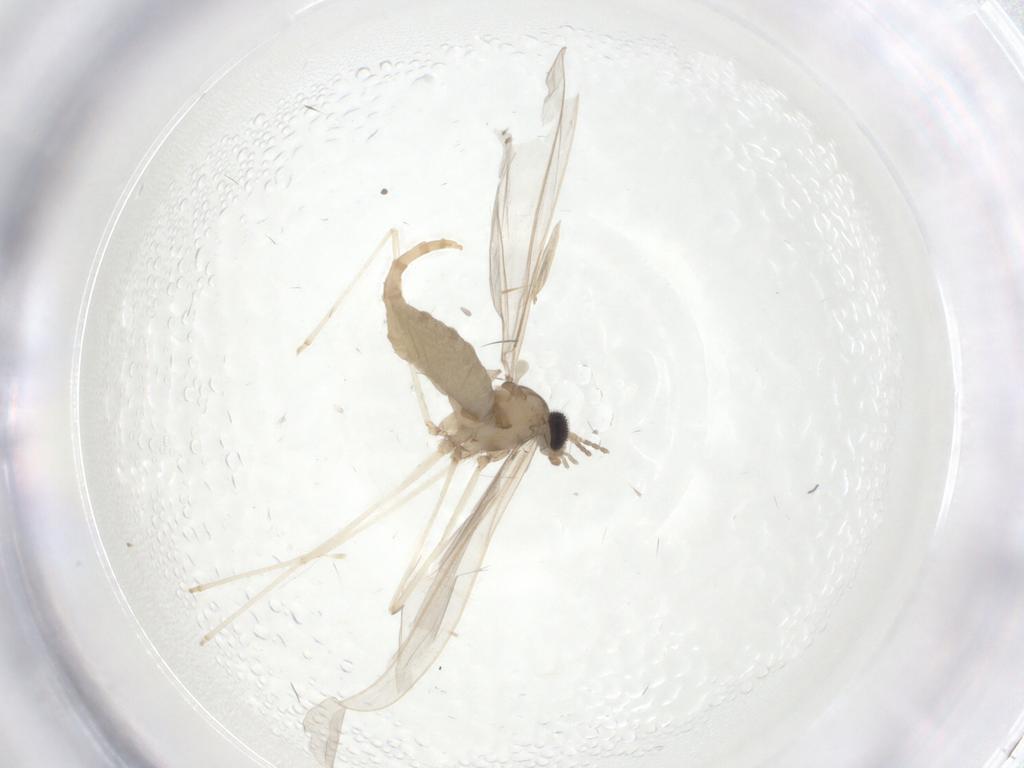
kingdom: Animalia
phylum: Arthropoda
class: Insecta
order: Diptera
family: Cecidomyiidae
